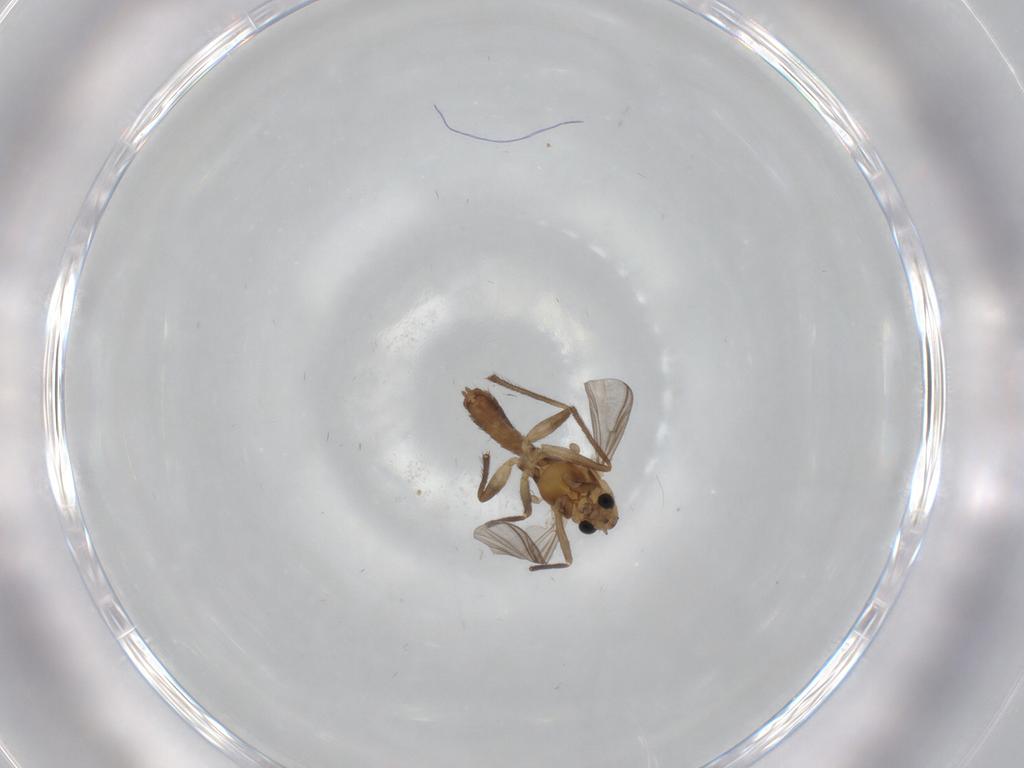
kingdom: Animalia
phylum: Arthropoda
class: Insecta
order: Diptera
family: Chironomidae
